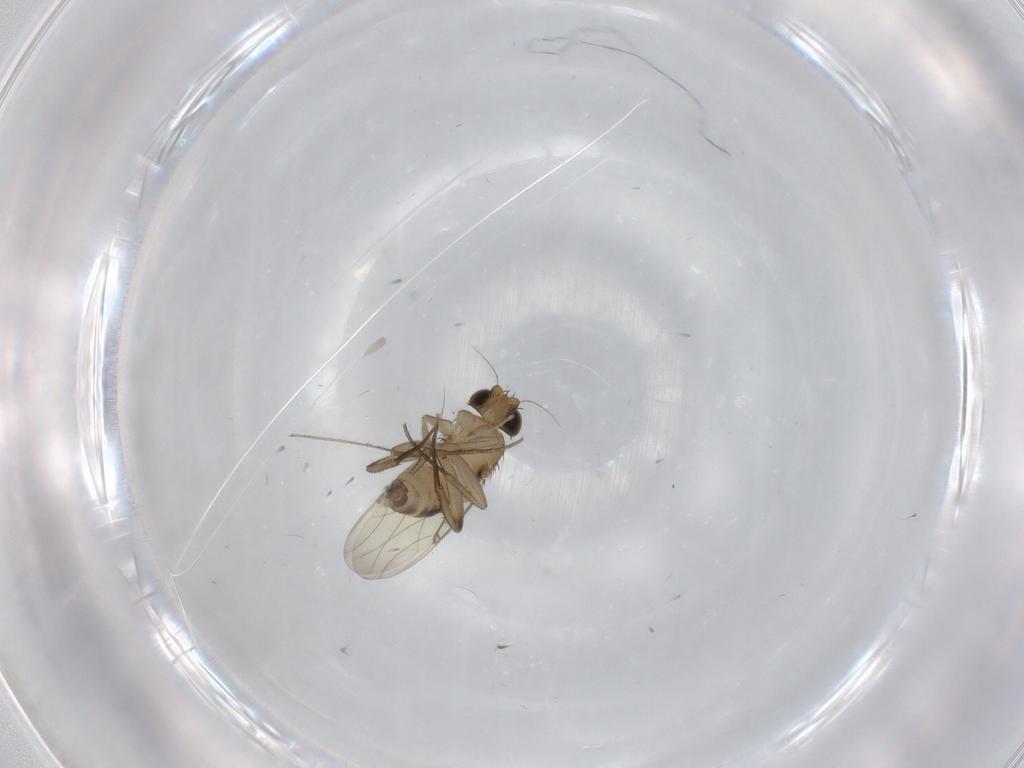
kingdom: Animalia
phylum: Arthropoda
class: Insecta
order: Diptera
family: Phoridae
